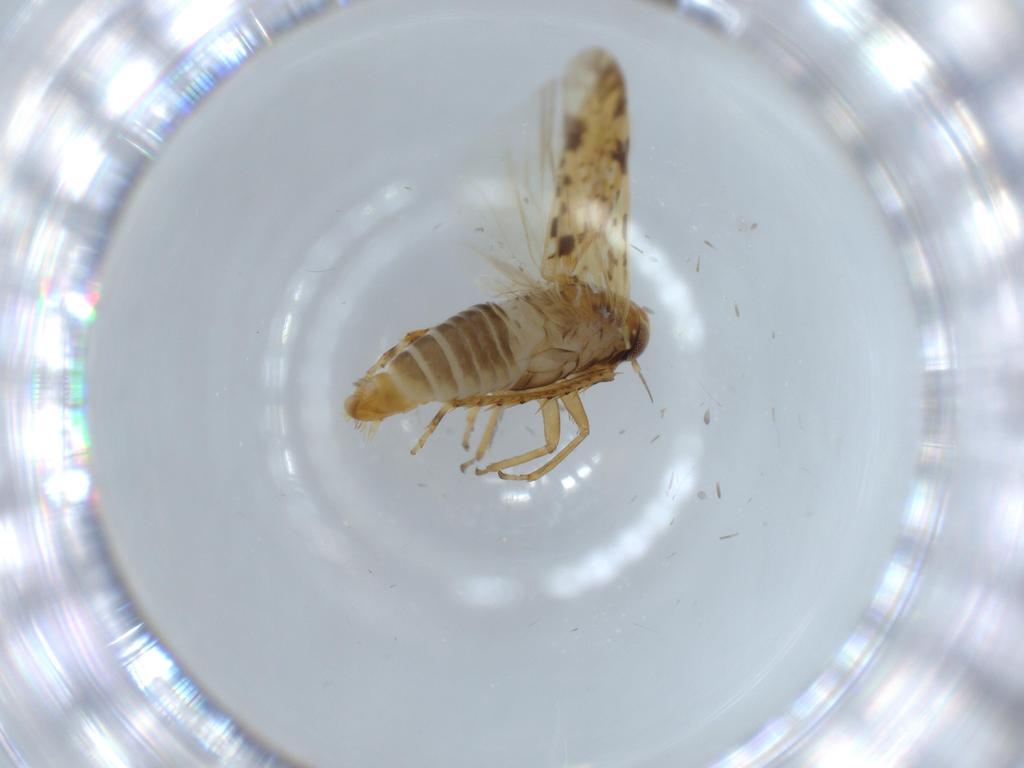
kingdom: Animalia
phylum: Arthropoda
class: Insecta
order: Hemiptera
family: Cicadellidae
